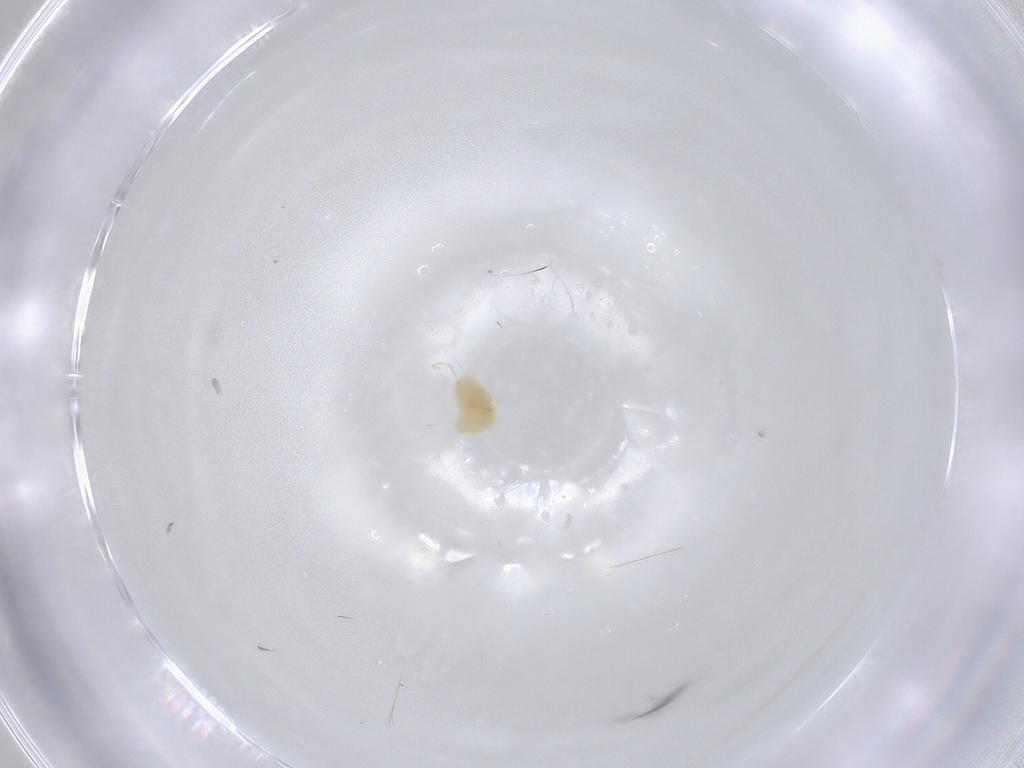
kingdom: Animalia
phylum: Arthropoda
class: Arachnida
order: Trombidiformes
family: Tetranychidae
